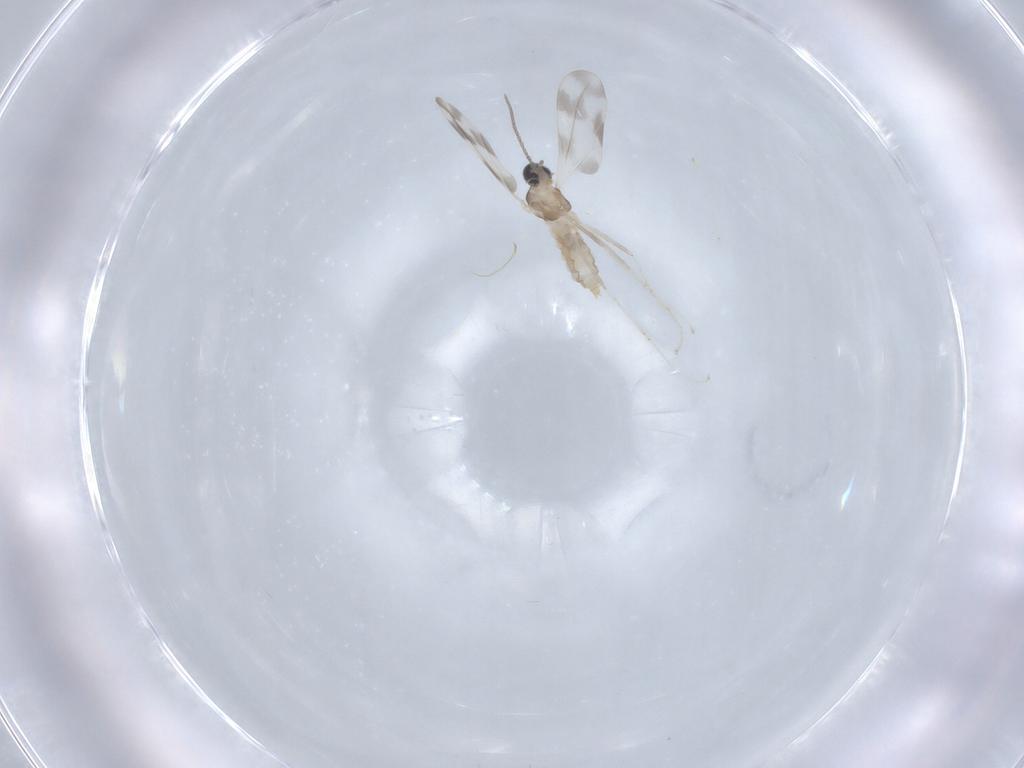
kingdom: Animalia
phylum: Arthropoda
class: Insecta
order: Diptera
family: Cecidomyiidae
